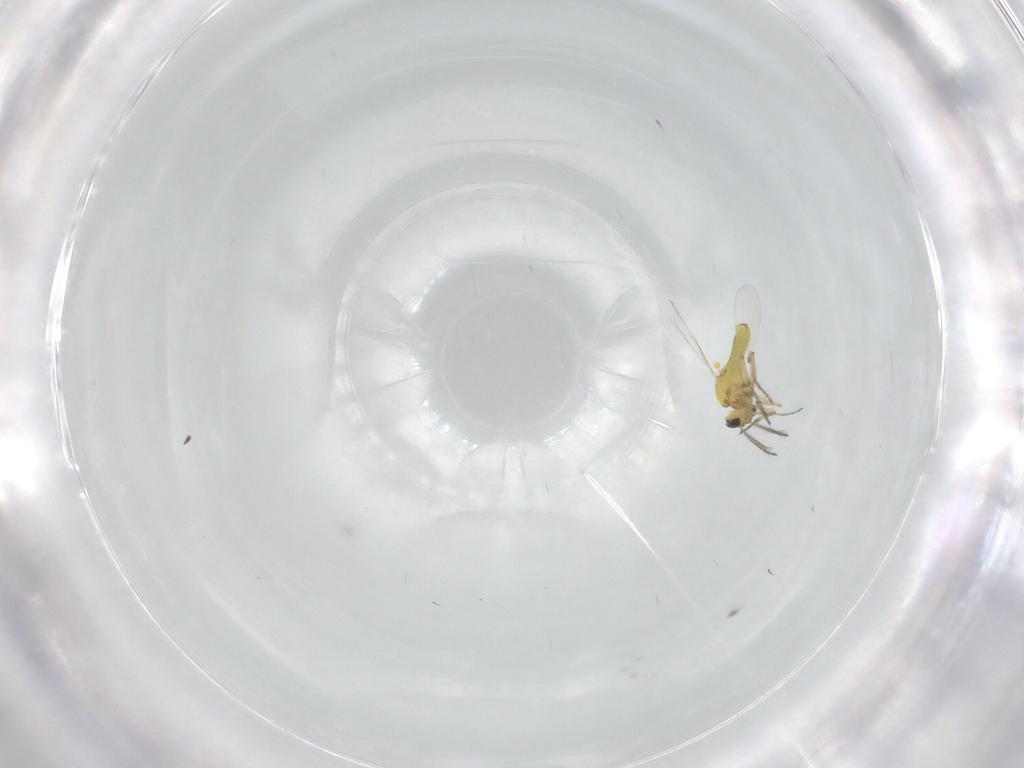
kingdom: Animalia
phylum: Arthropoda
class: Insecta
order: Diptera
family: Ceratopogonidae
